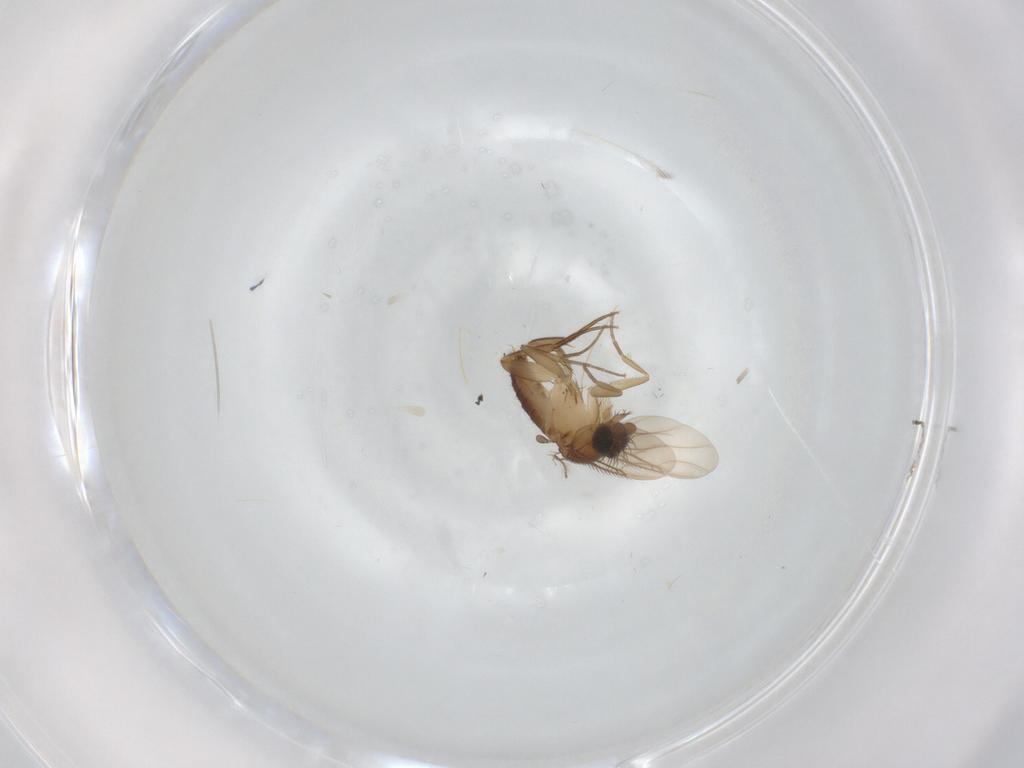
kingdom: Animalia
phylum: Arthropoda
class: Insecta
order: Diptera
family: Phoridae
